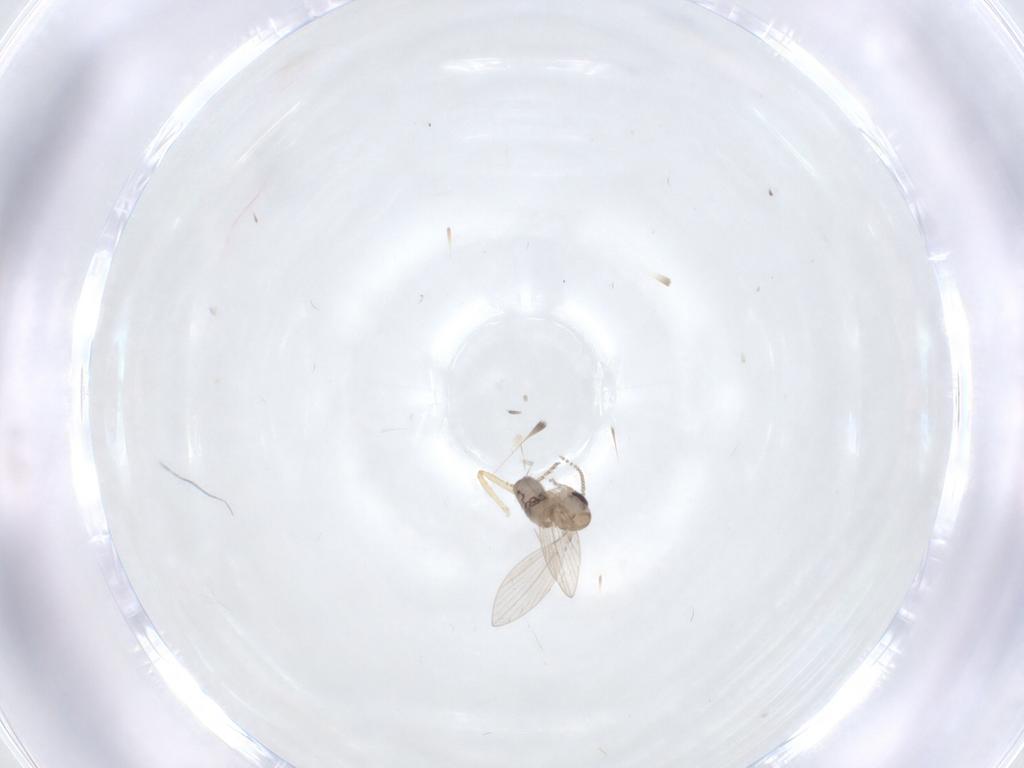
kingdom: Animalia
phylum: Arthropoda
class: Insecta
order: Diptera
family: Psychodidae
